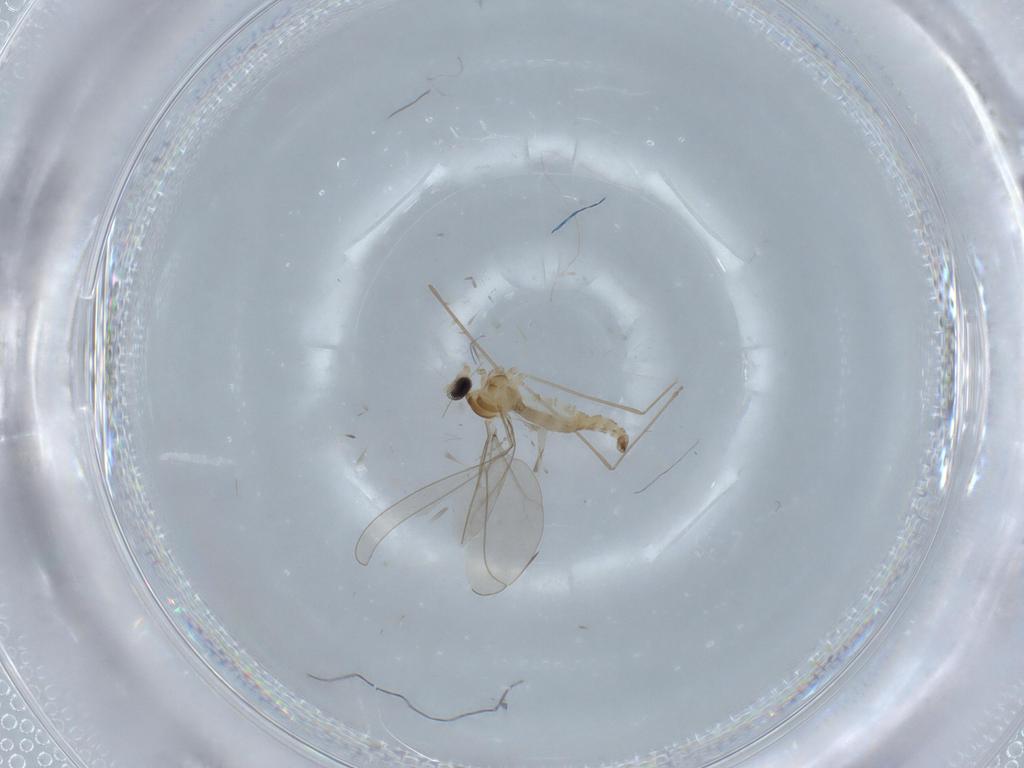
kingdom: Animalia
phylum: Arthropoda
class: Insecta
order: Diptera
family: Cecidomyiidae
